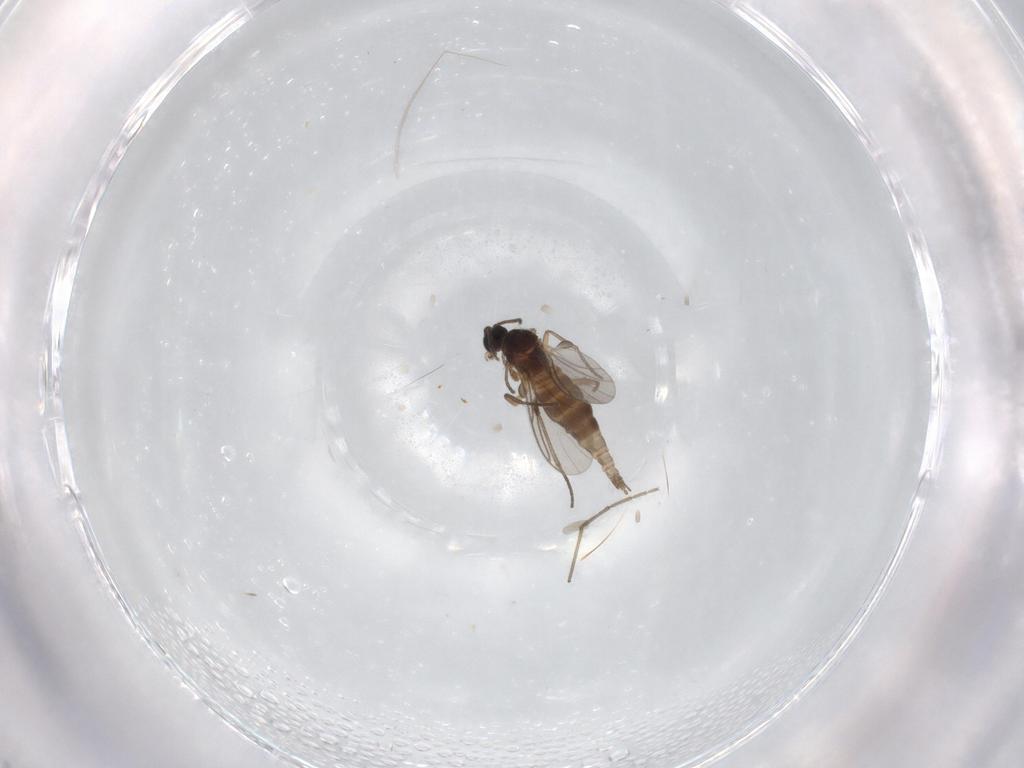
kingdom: Animalia
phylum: Arthropoda
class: Insecta
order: Diptera
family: Sciaridae
